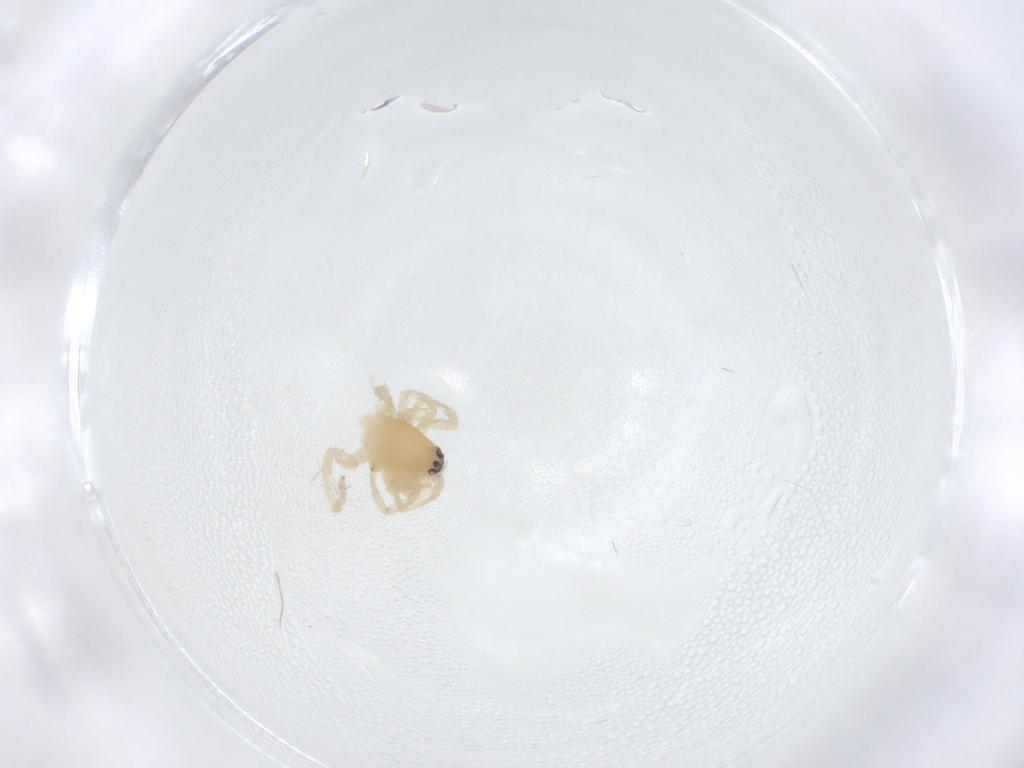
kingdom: Animalia
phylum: Arthropoda
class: Arachnida
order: Araneae
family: Anyphaenidae
